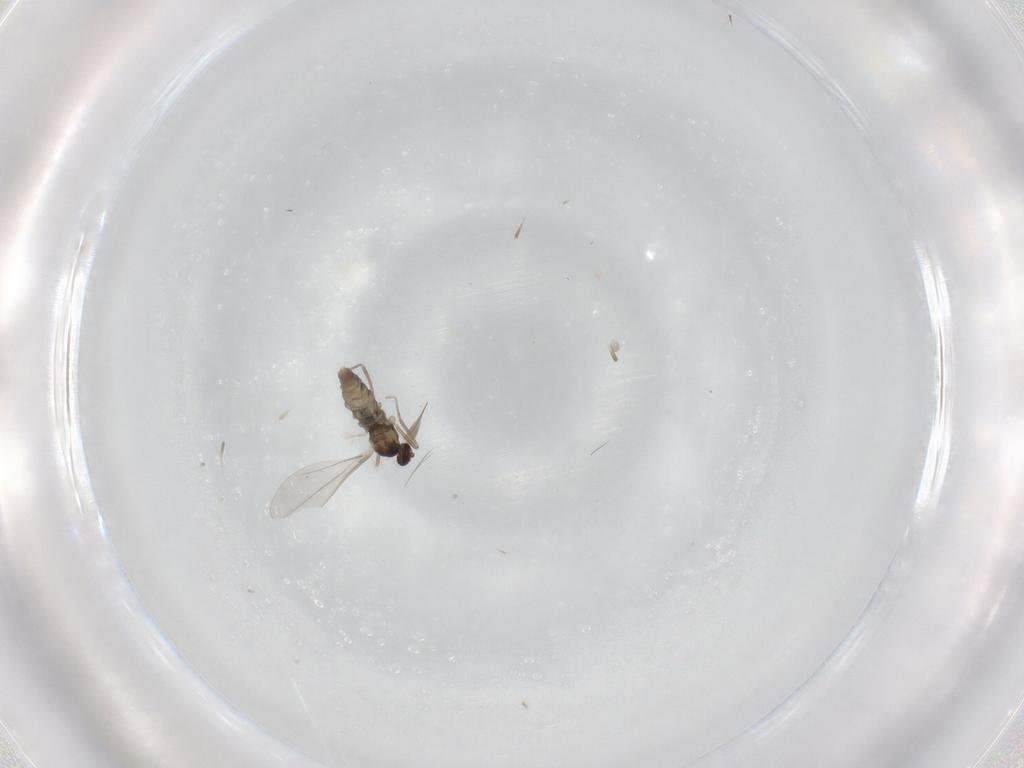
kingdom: Animalia
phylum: Arthropoda
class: Insecta
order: Diptera
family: Cecidomyiidae
